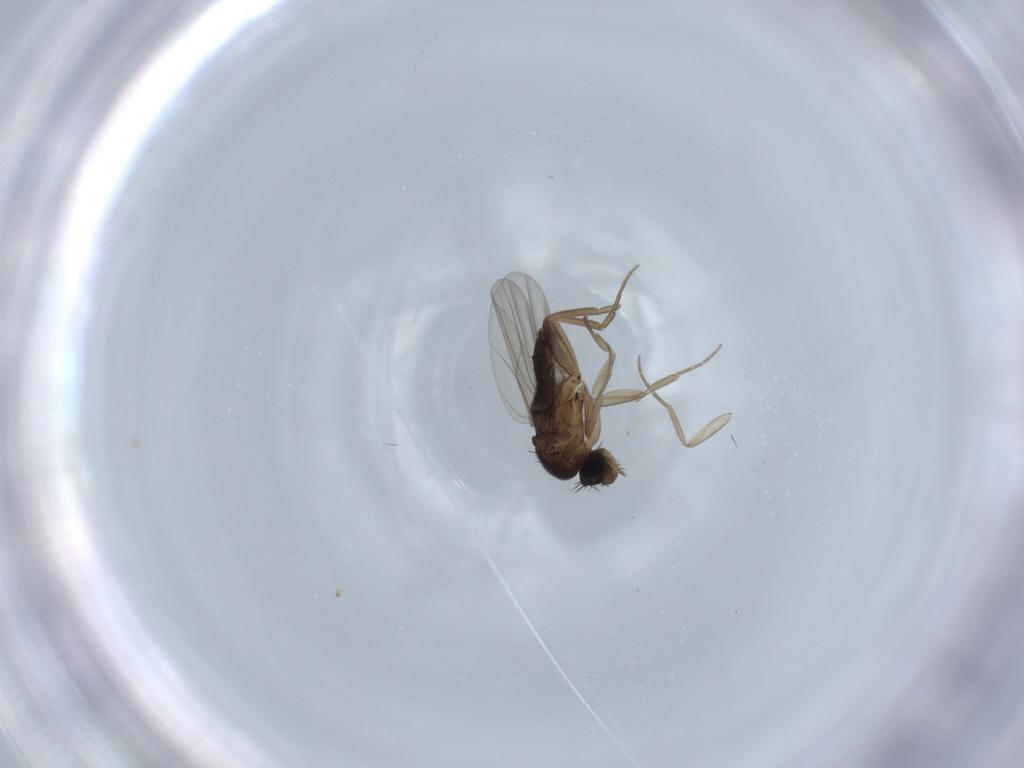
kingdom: Animalia
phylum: Arthropoda
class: Insecta
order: Diptera
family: Phoridae
